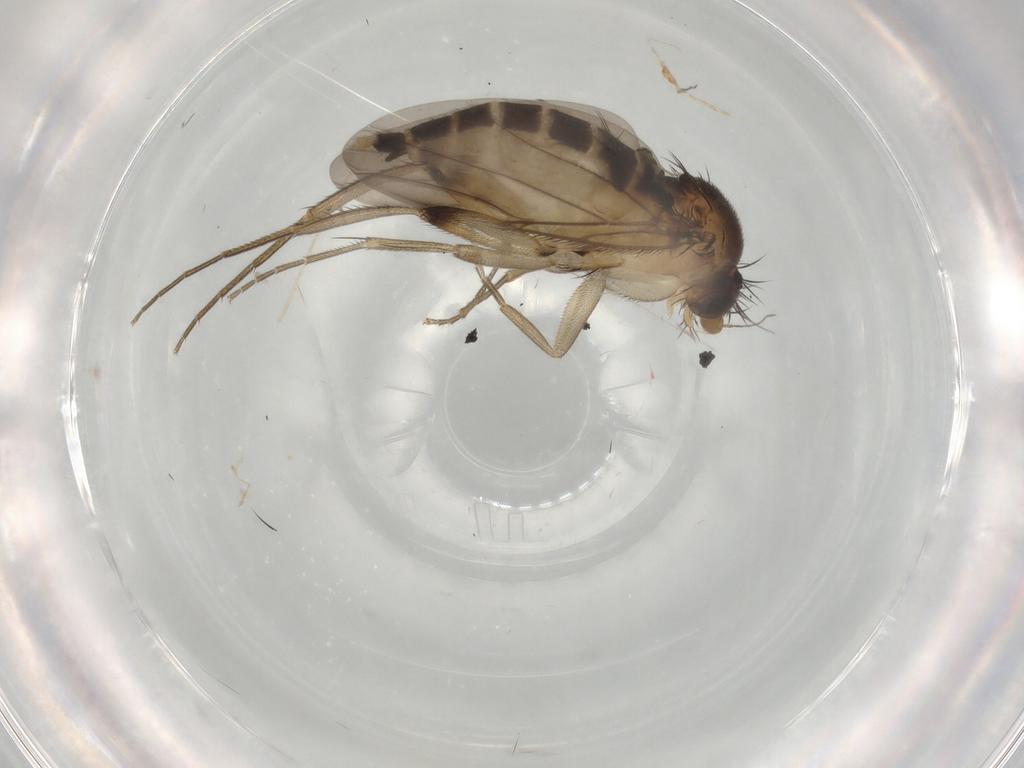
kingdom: Animalia
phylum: Arthropoda
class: Insecta
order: Diptera
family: Phoridae
